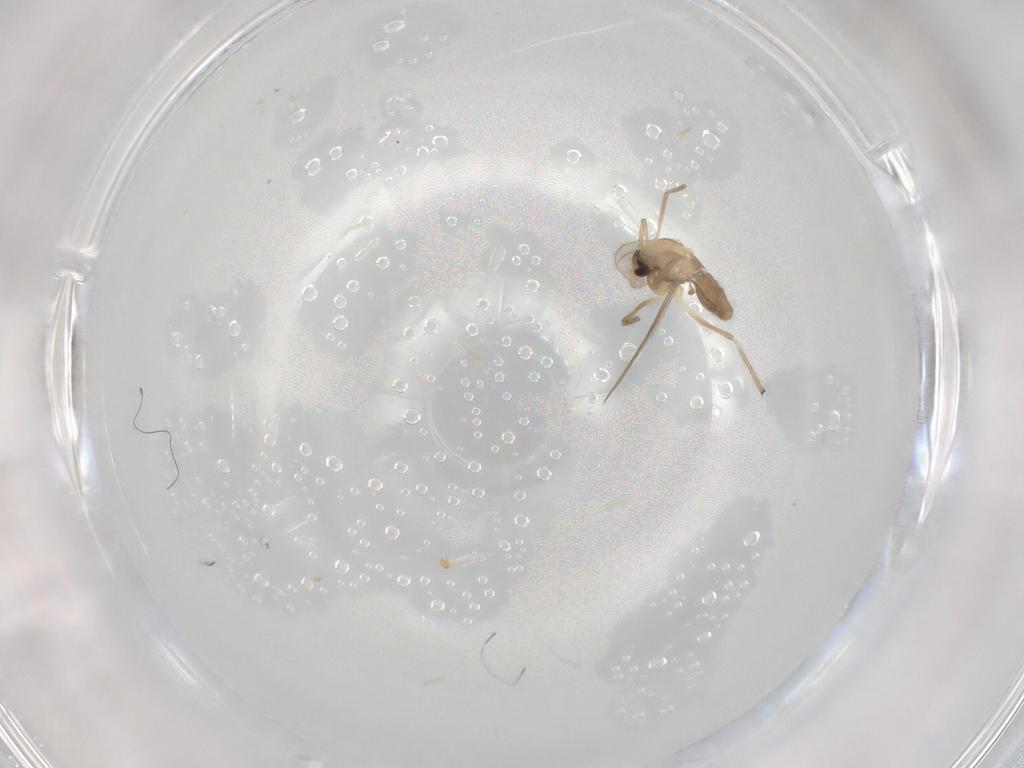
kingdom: Animalia
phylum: Arthropoda
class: Insecta
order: Diptera
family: Chironomidae
